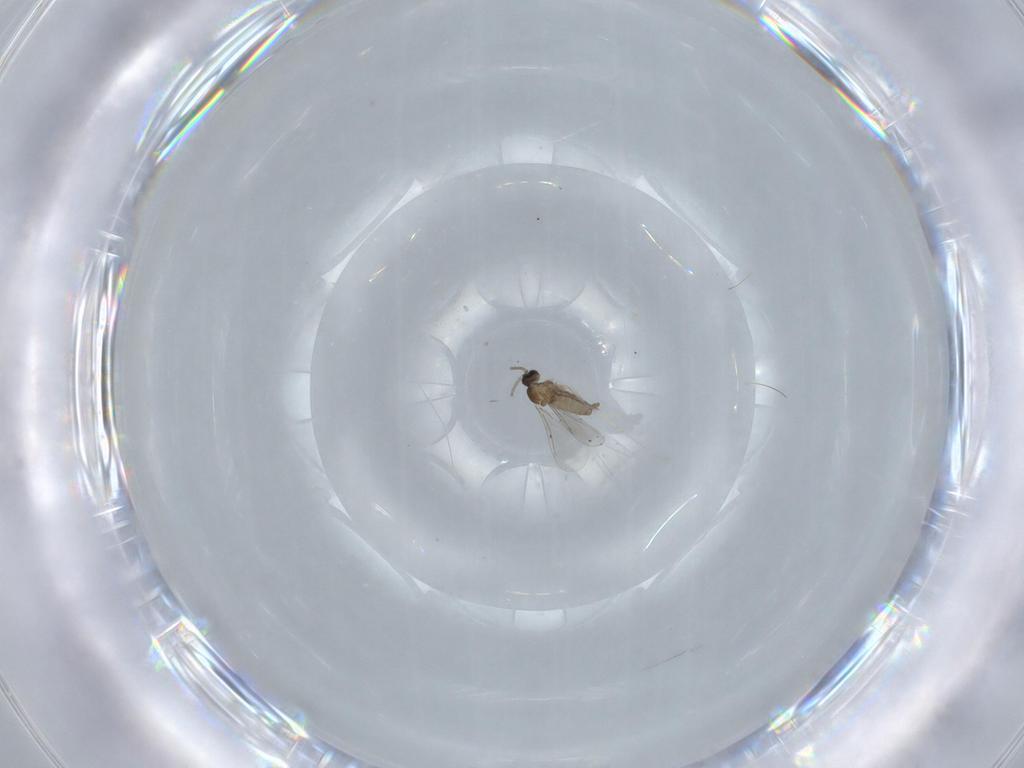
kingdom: Animalia
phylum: Arthropoda
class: Insecta
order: Diptera
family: Cecidomyiidae
